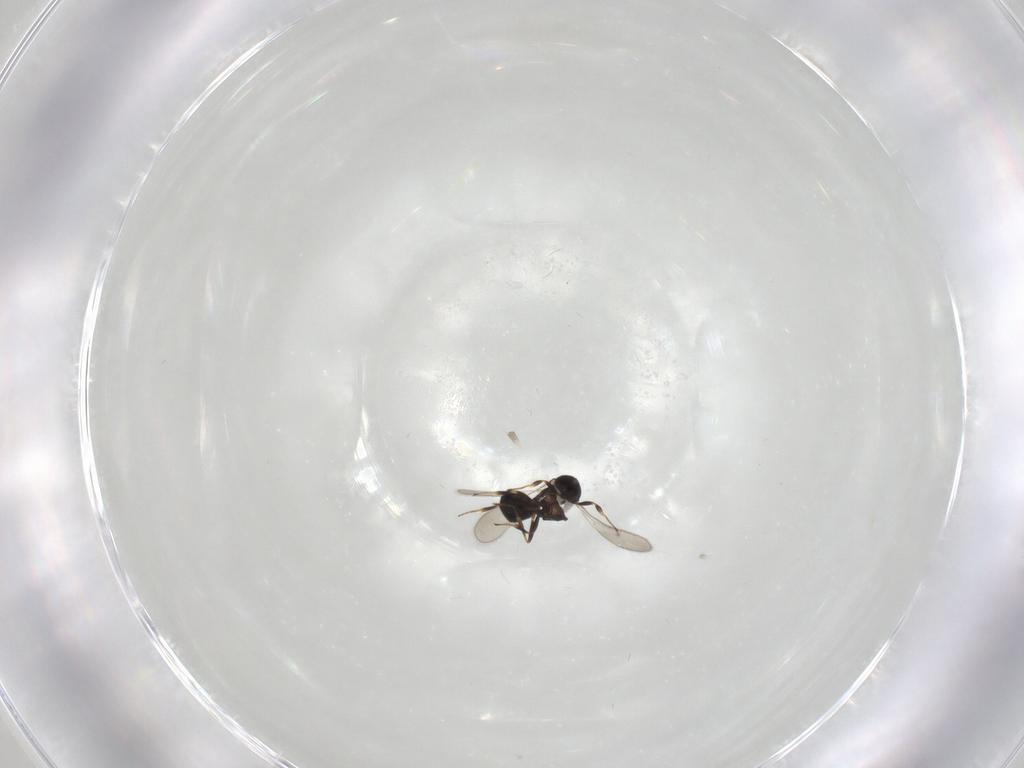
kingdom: Animalia
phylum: Arthropoda
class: Insecta
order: Hymenoptera
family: Scelionidae
